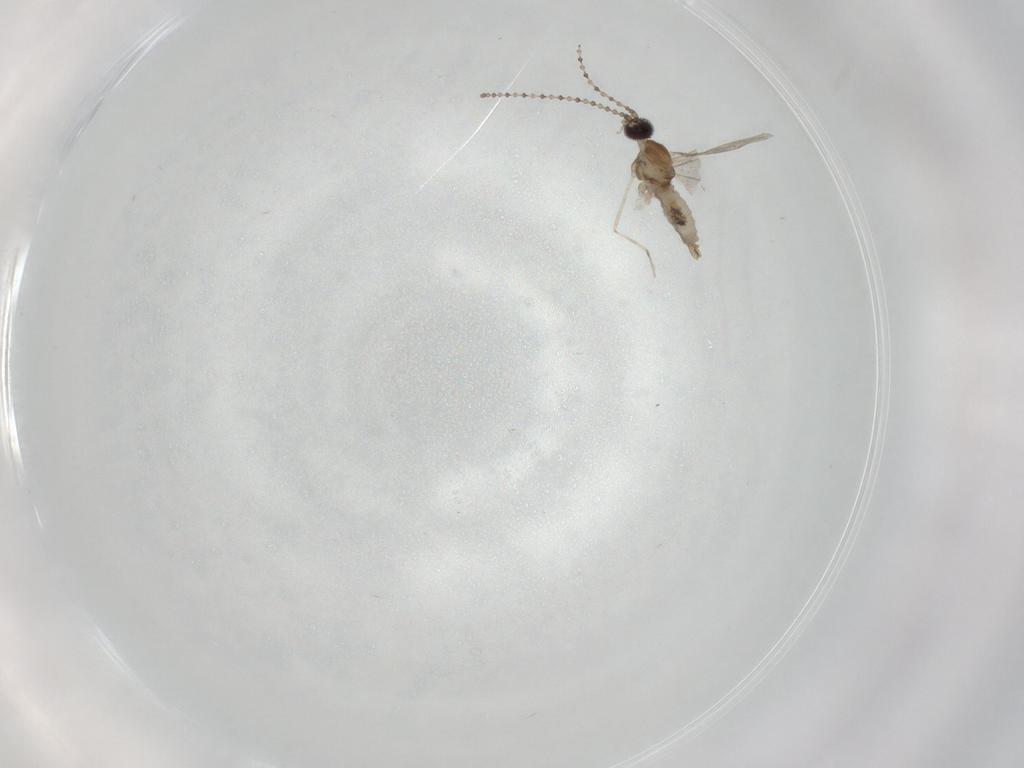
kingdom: Animalia
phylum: Arthropoda
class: Insecta
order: Diptera
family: Cecidomyiidae
